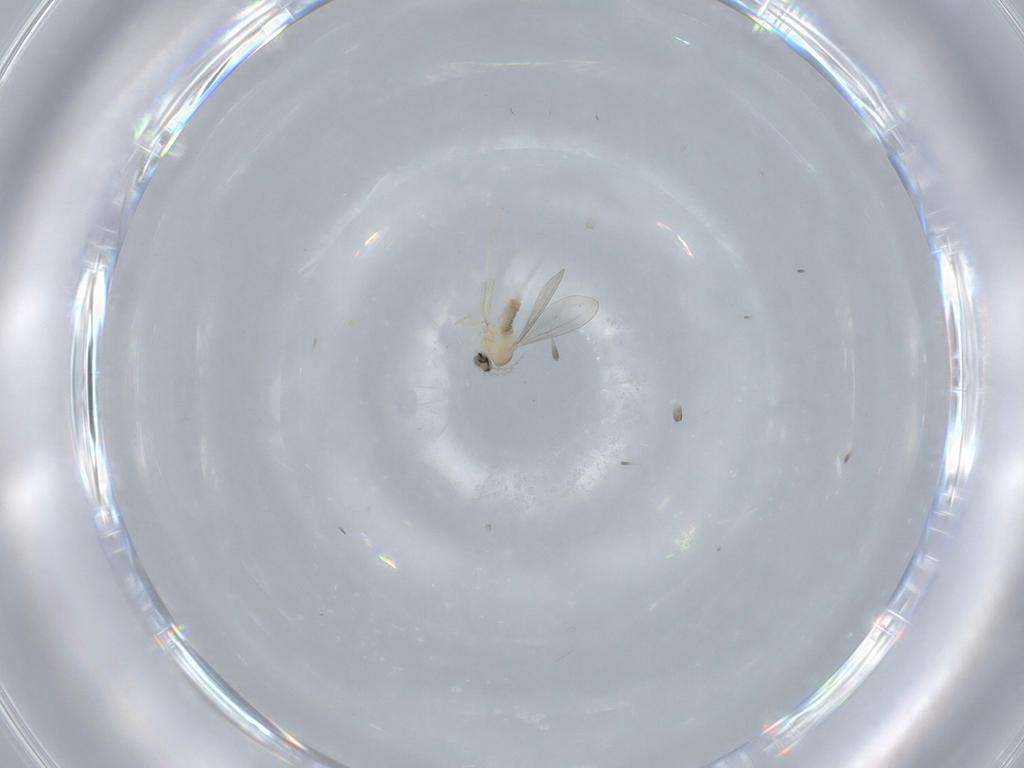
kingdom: Animalia
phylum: Arthropoda
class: Insecta
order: Diptera
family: Cecidomyiidae
